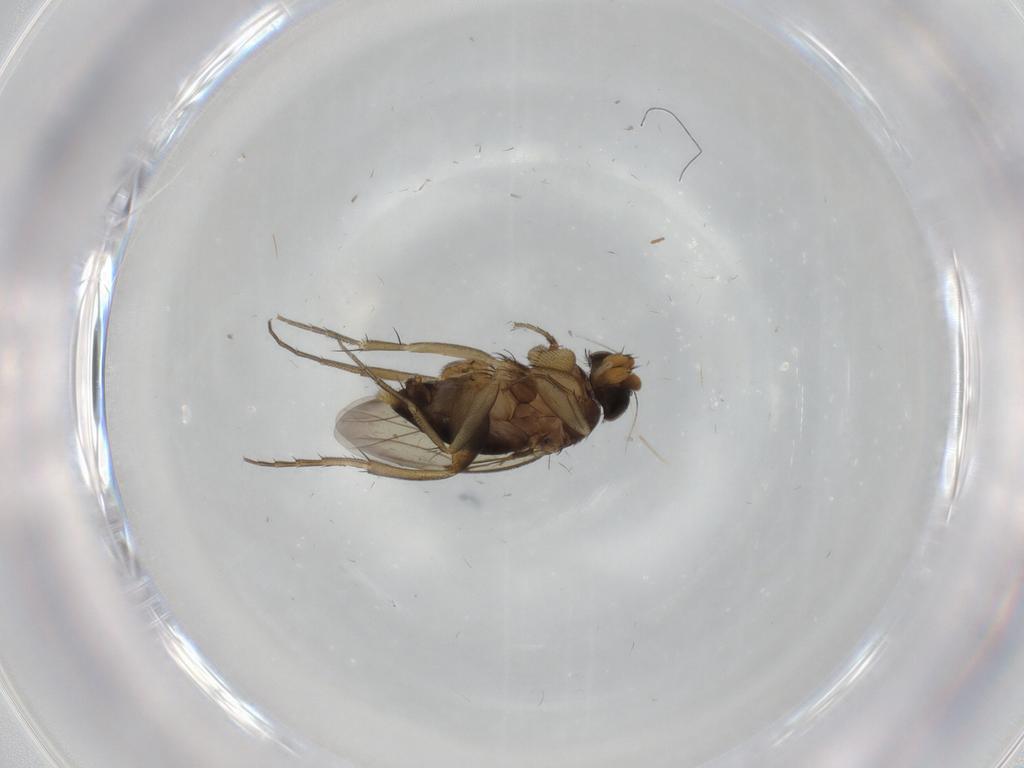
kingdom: Animalia
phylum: Arthropoda
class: Insecta
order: Diptera
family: Phoridae
